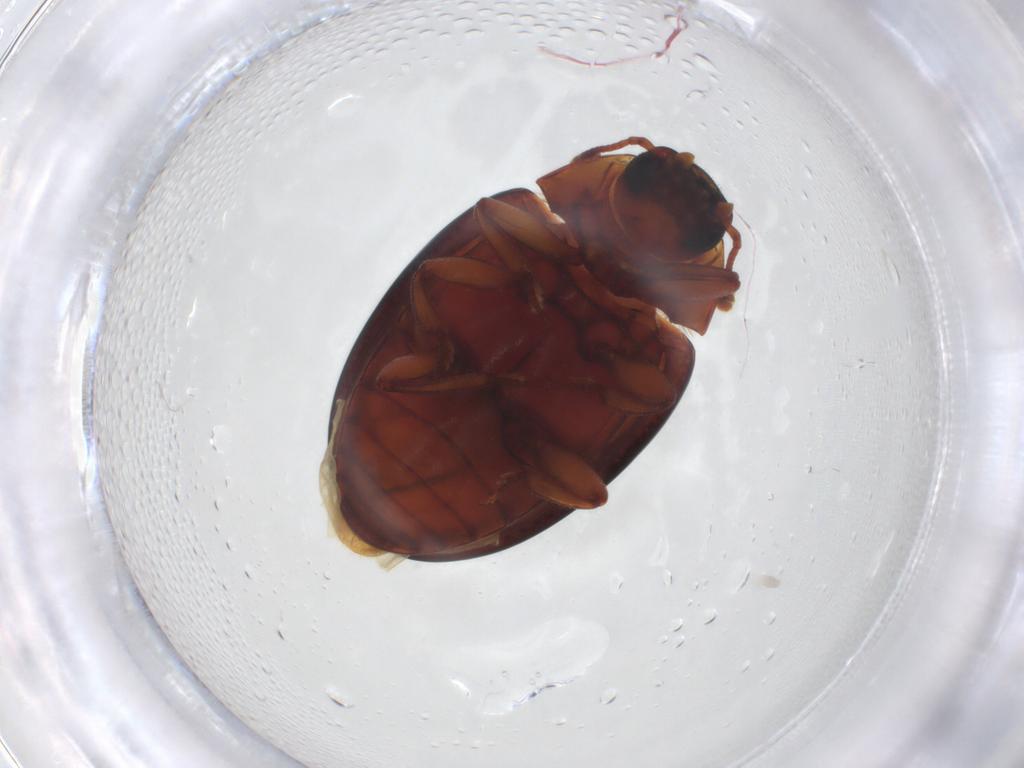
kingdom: Animalia
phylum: Arthropoda
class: Insecta
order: Coleoptera
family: Zopheridae
